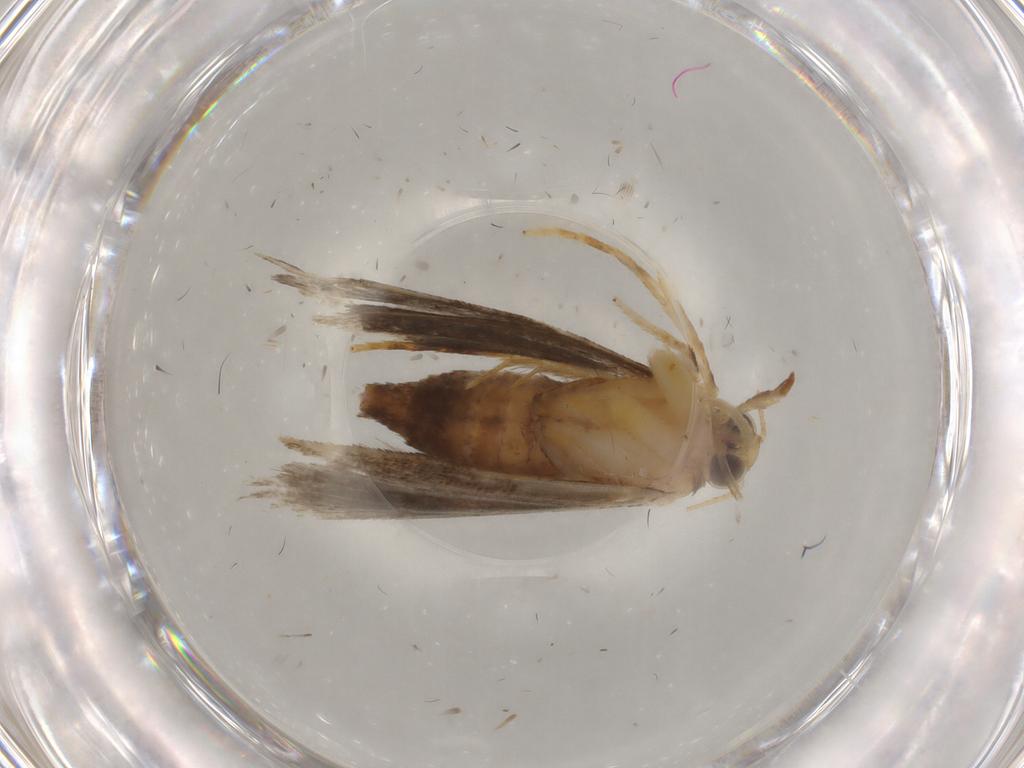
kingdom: Animalia
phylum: Arthropoda
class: Insecta
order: Lepidoptera
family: Crambidae
